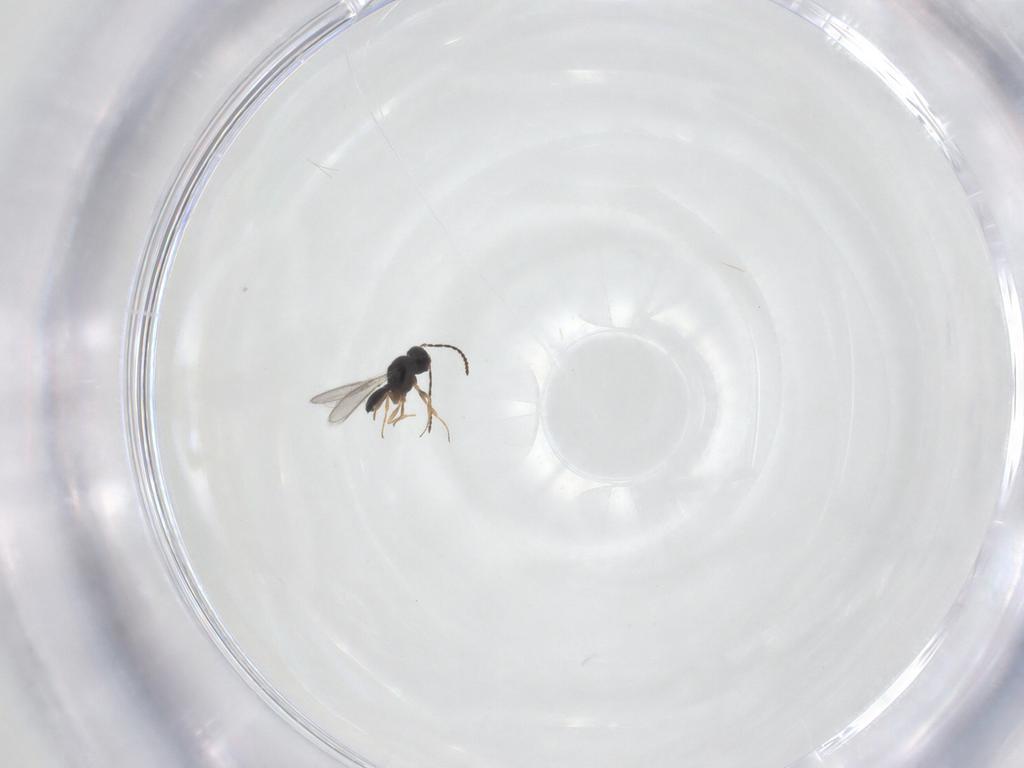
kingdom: Animalia
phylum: Arthropoda
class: Insecta
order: Hymenoptera
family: Scelionidae
